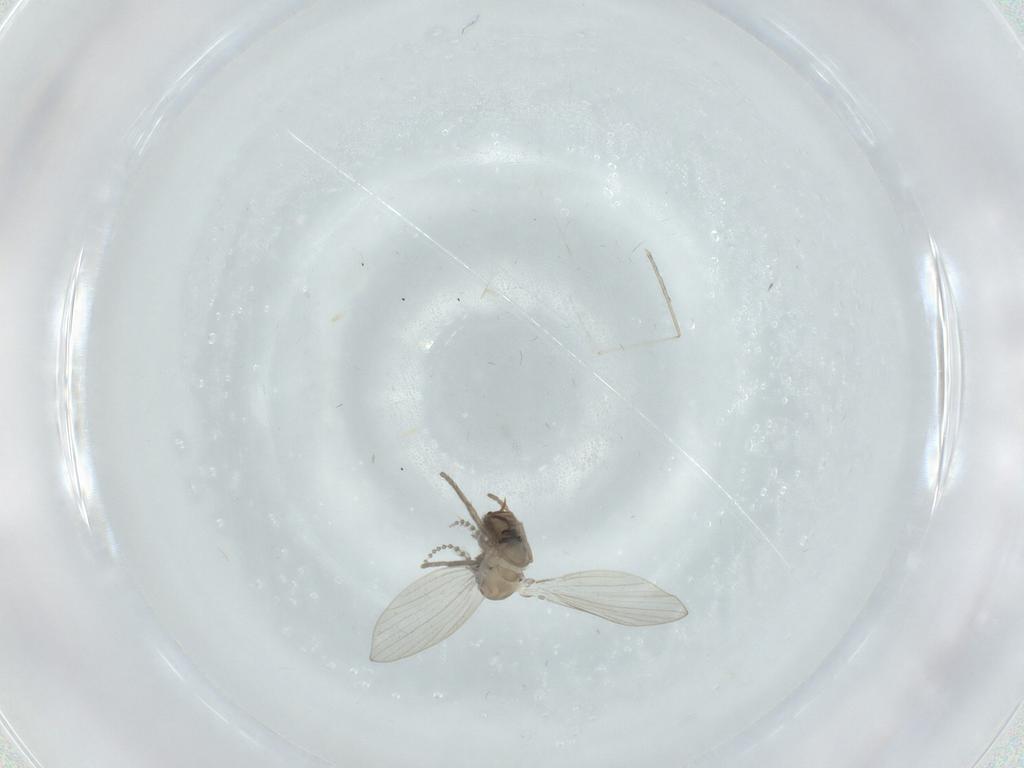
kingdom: Animalia
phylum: Arthropoda
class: Insecta
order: Diptera
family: Psychodidae
